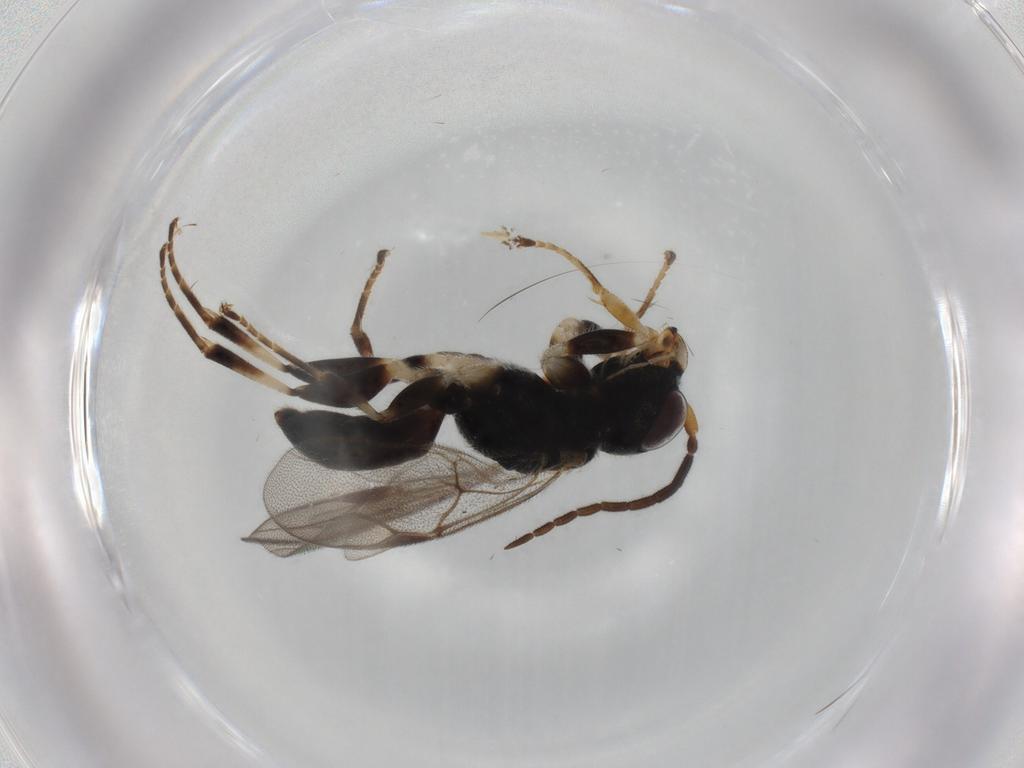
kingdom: Animalia
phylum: Arthropoda
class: Insecta
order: Hymenoptera
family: Dryinidae
